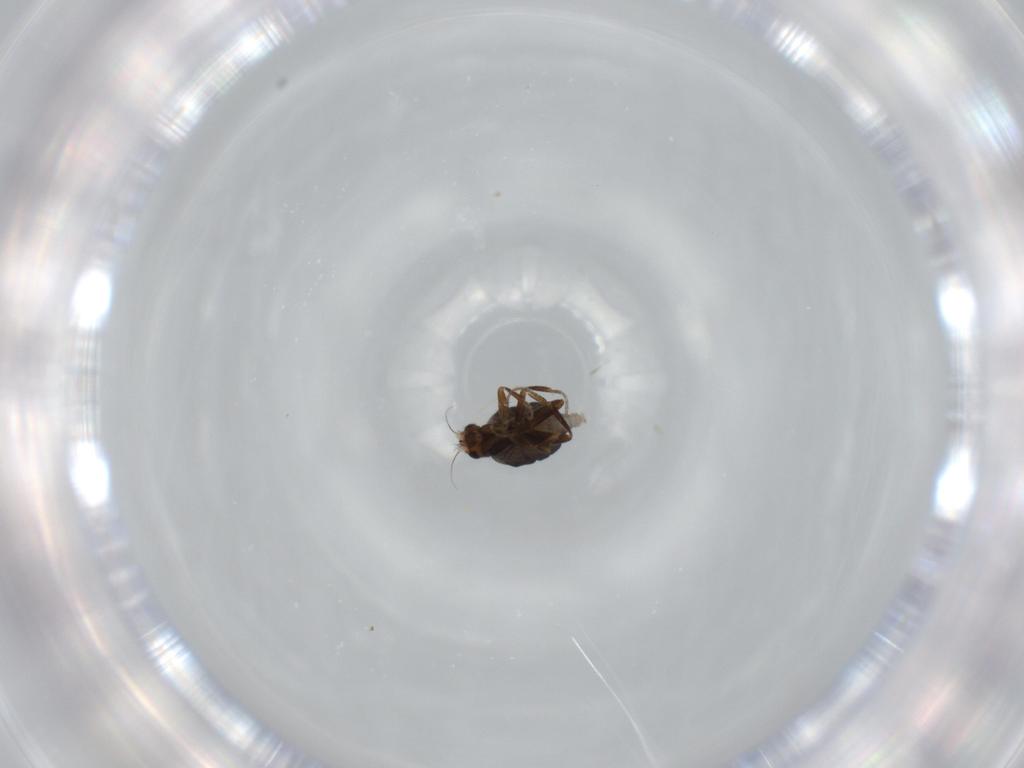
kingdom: Animalia
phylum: Arthropoda
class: Insecta
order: Diptera
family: Phoridae
